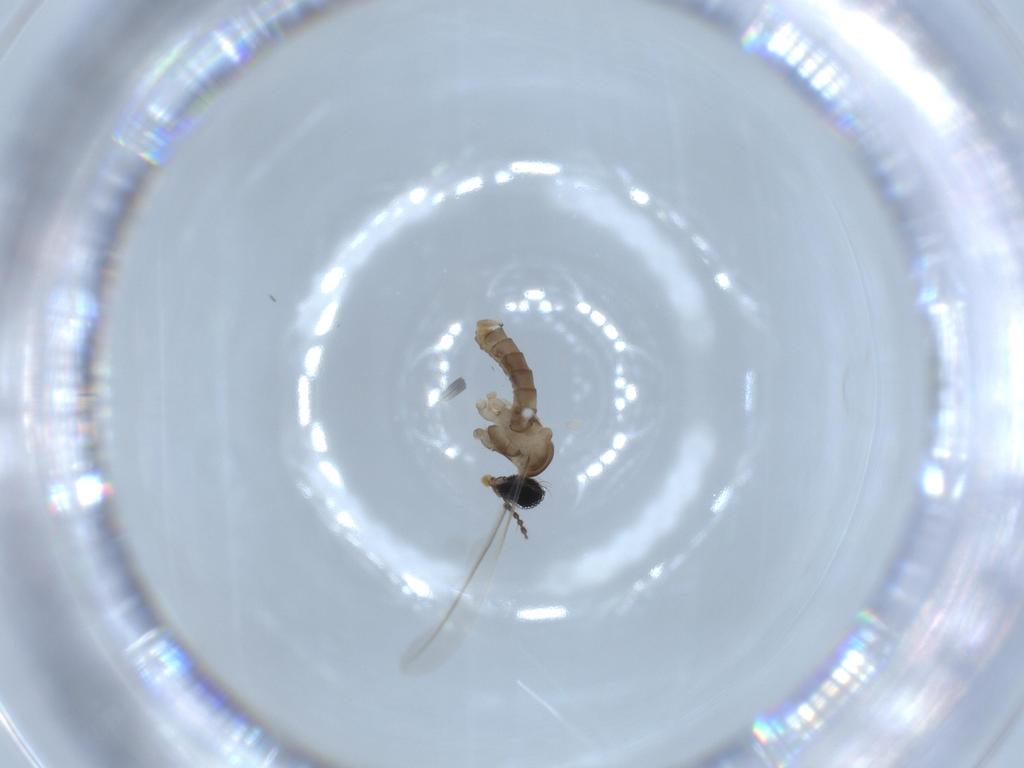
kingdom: Animalia
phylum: Arthropoda
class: Insecta
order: Diptera
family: Cecidomyiidae
